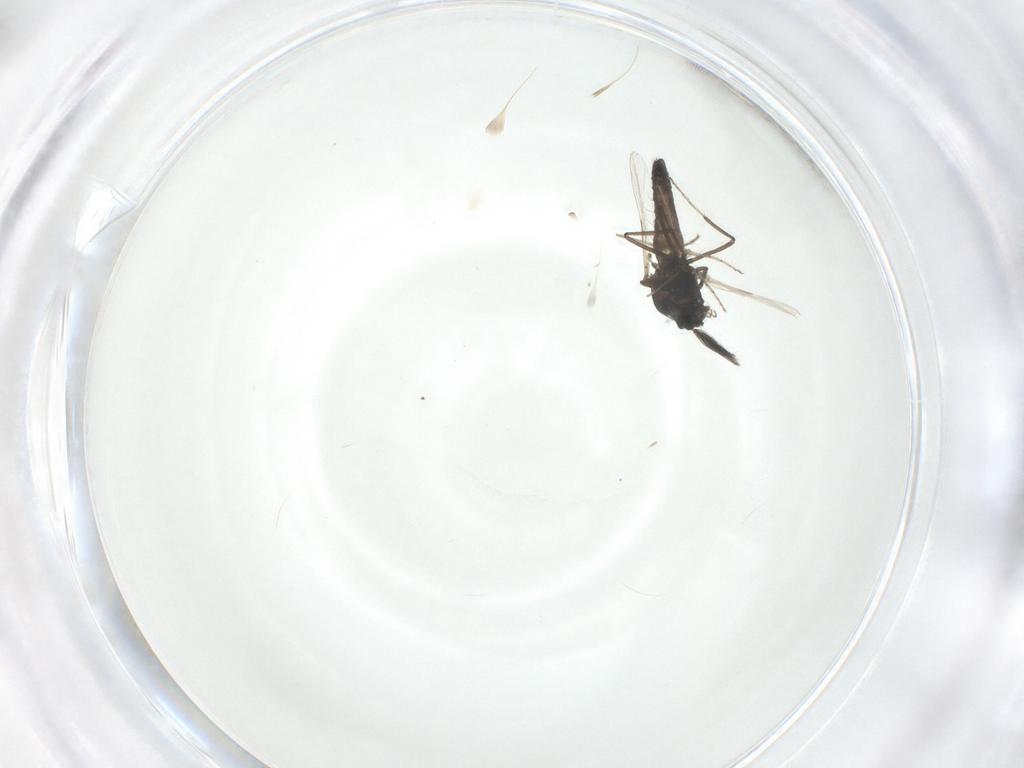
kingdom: Animalia
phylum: Arthropoda
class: Insecta
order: Diptera
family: Ceratopogonidae
